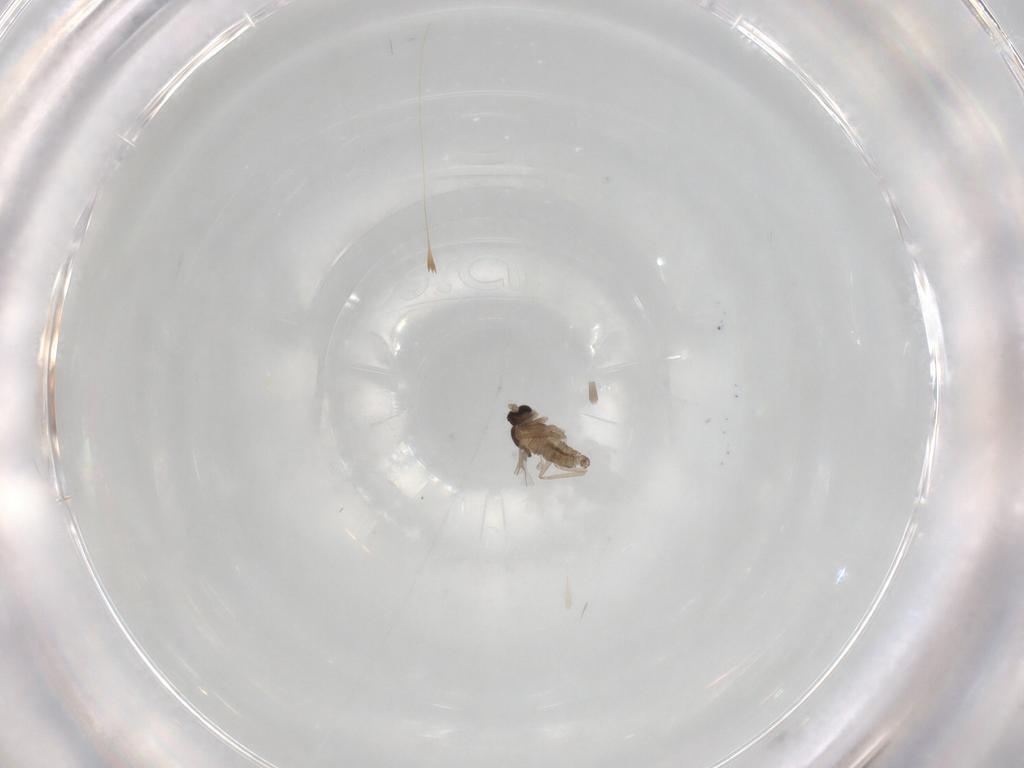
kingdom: Animalia
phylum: Arthropoda
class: Insecta
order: Diptera
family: Cecidomyiidae
